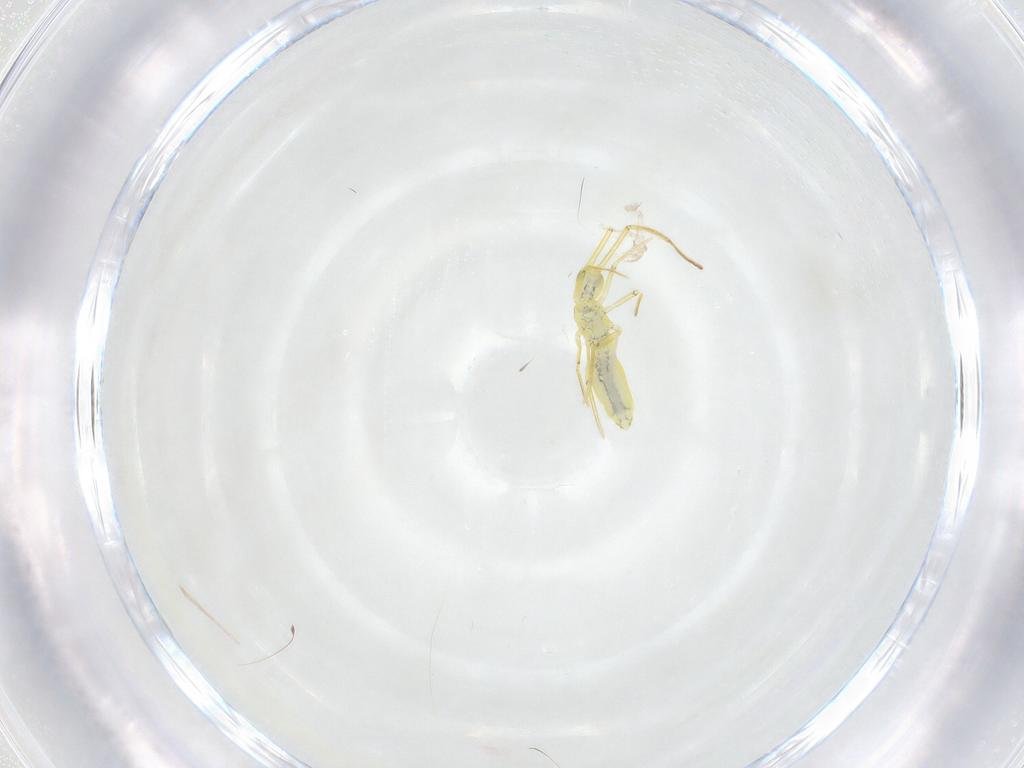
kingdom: Animalia
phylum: Arthropoda
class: Collembola
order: Entomobryomorpha
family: Entomobryidae
